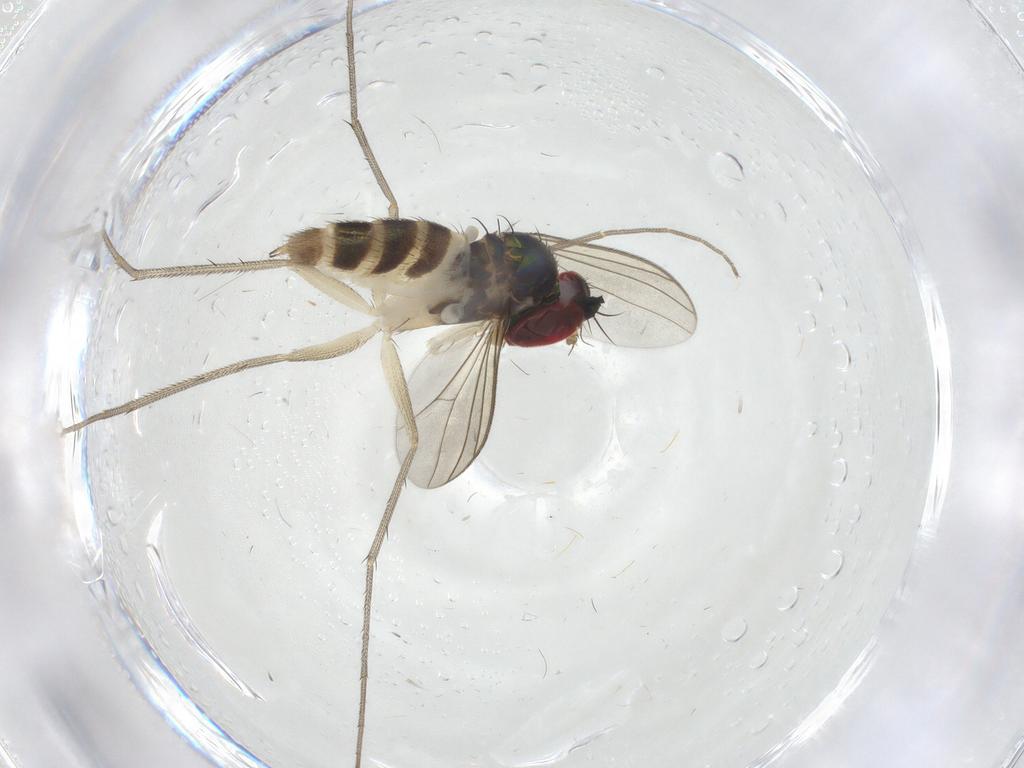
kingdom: Animalia
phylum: Arthropoda
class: Insecta
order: Diptera
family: Dolichopodidae
